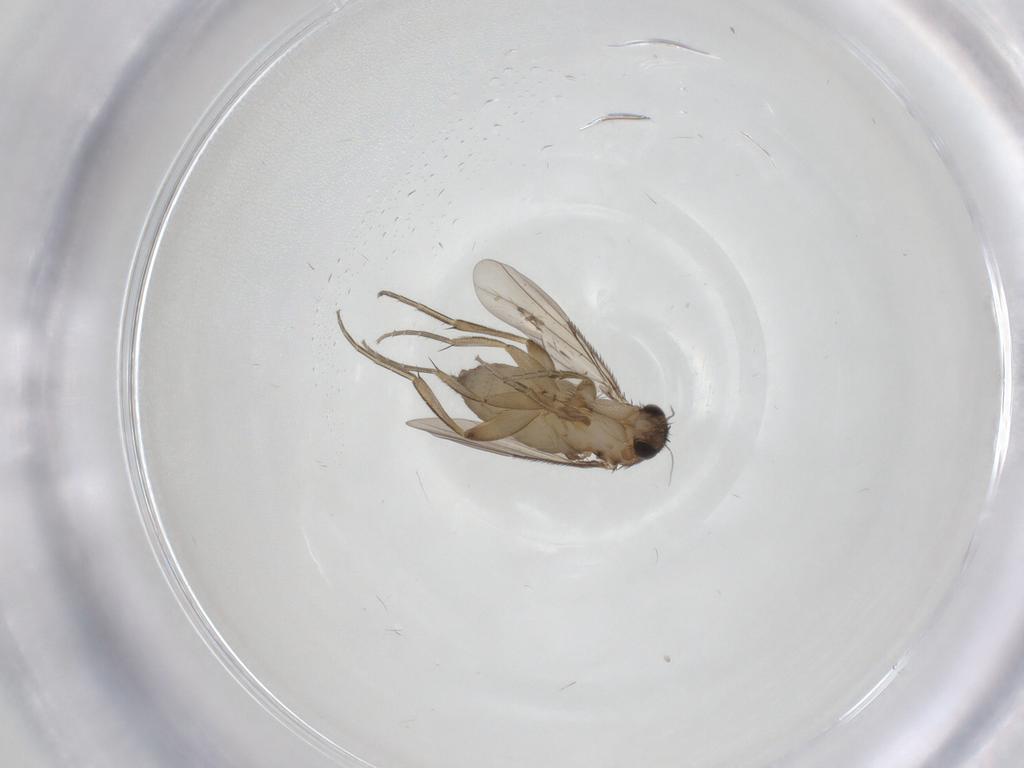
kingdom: Animalia
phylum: Arthropoda
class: Insecta
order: Diptera
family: Phoridae
